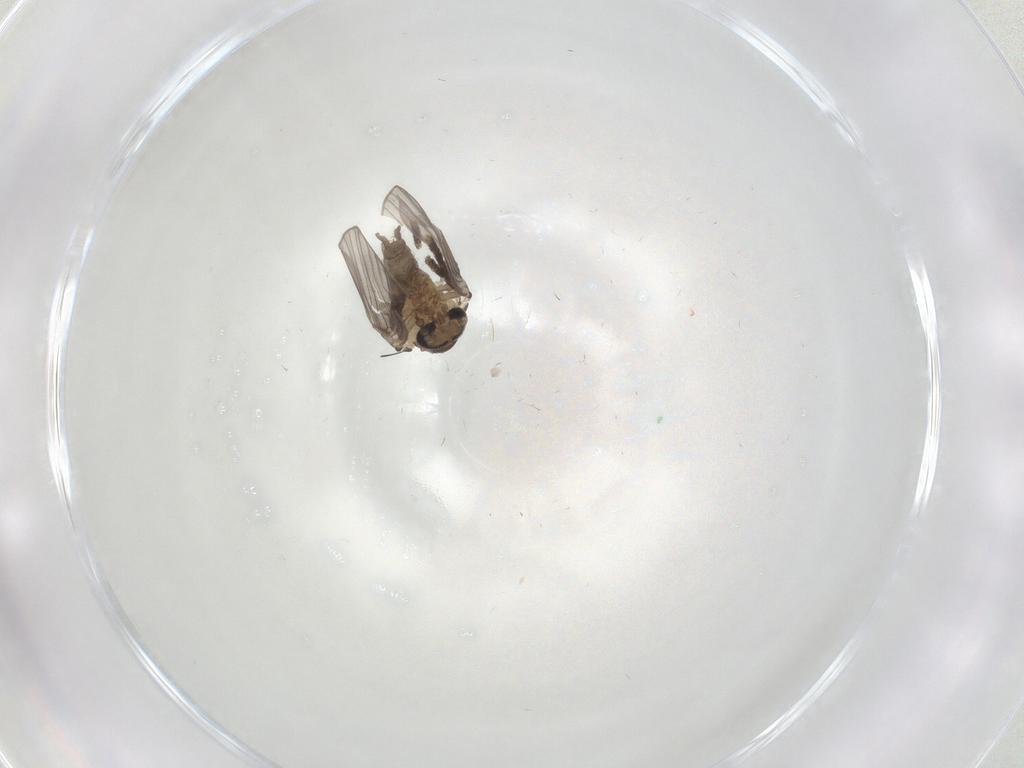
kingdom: Animalia
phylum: Arthropoda
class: Insecta
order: Diptera
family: Psychodidae
